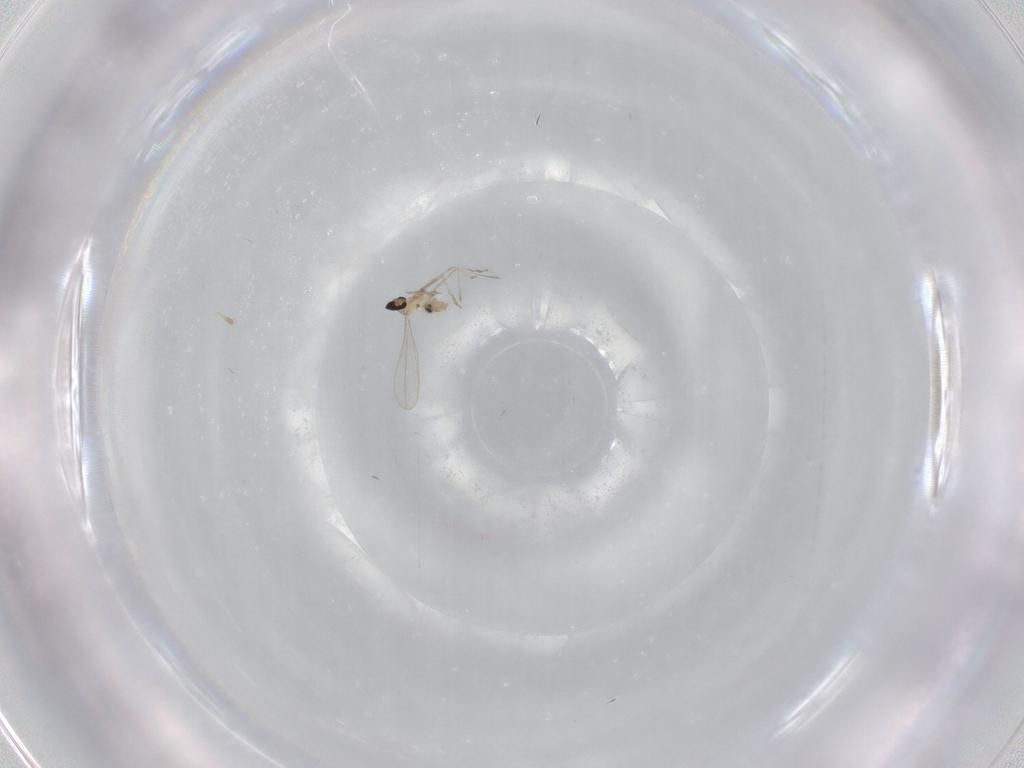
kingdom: Animalia
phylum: Arthropoda
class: Insecta
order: Diptera
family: Cecidomyiidae
